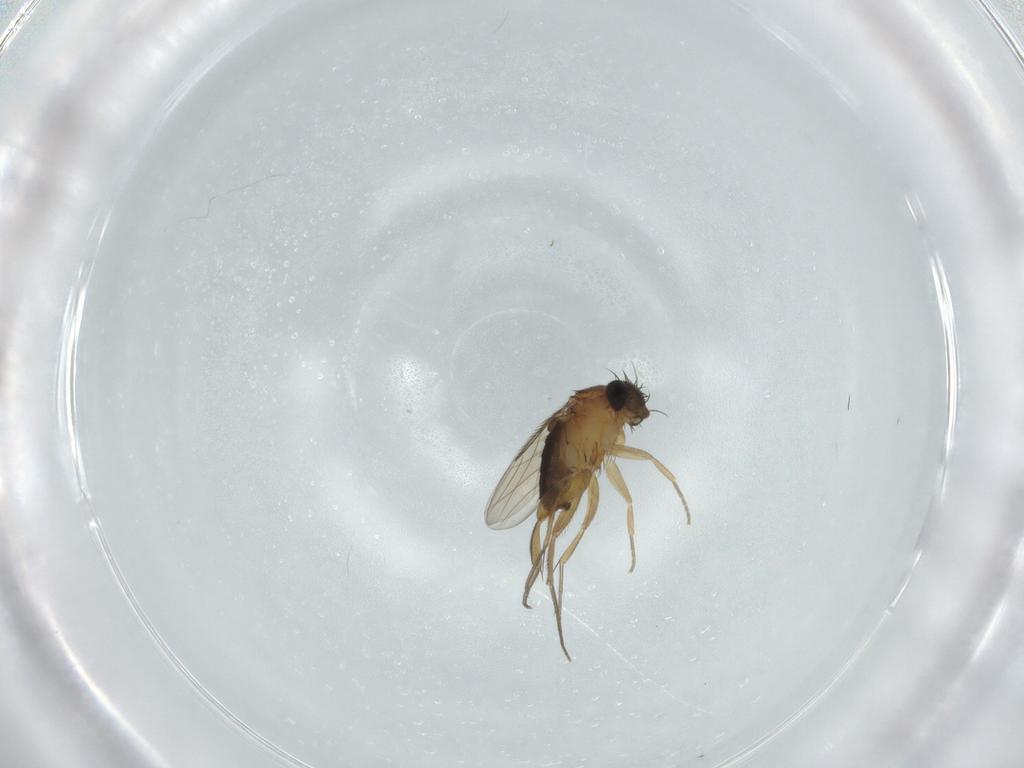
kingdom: Animalia
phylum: Arthropoda
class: Insecta
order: Diptera
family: Phoridae
